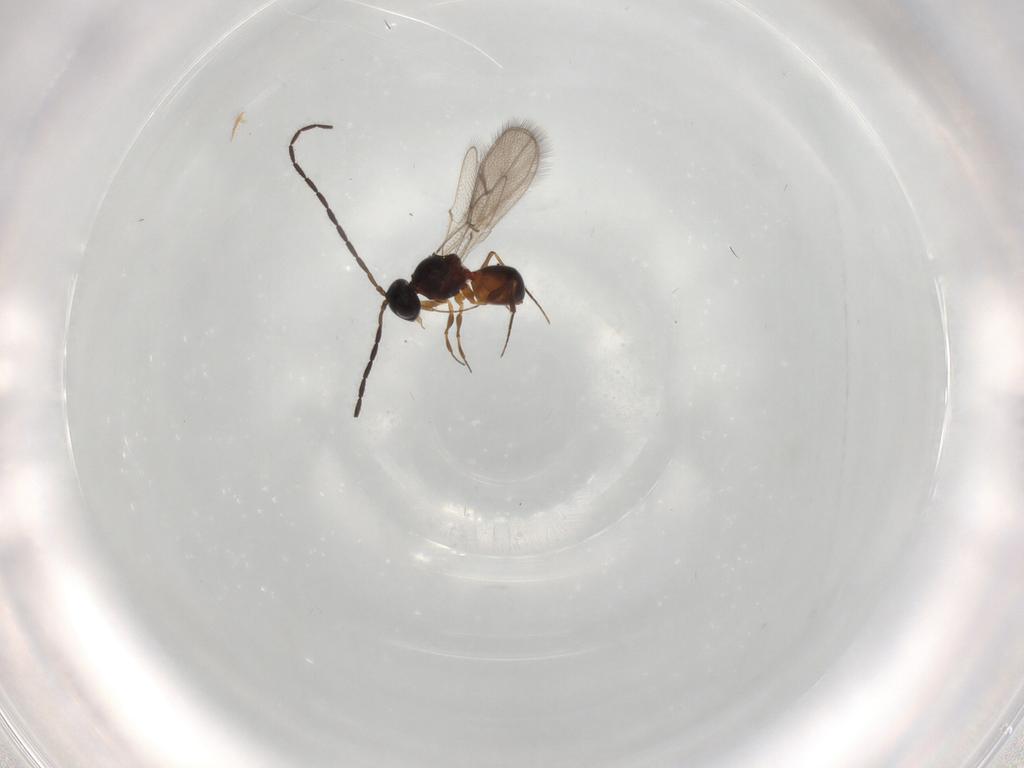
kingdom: Animalia
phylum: Arthropoda
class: Insecta
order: Hymenoptera
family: Figitidae
